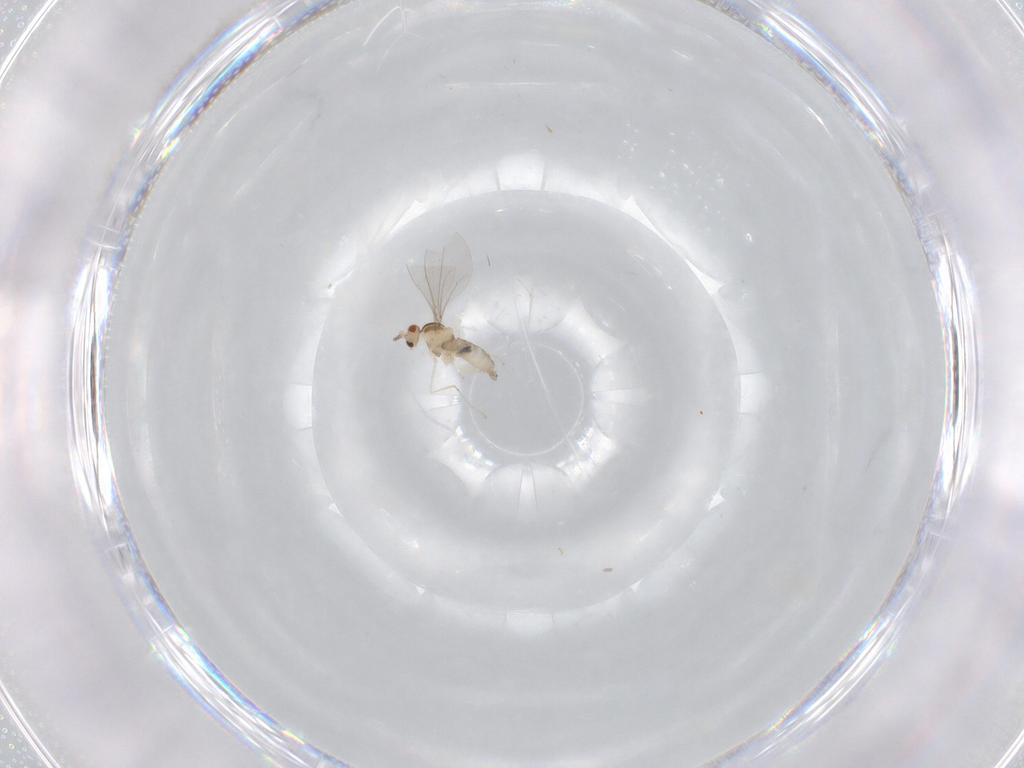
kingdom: Animalia
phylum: Arthropoda
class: Insecta
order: Diptera
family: Cecidomyiidae
